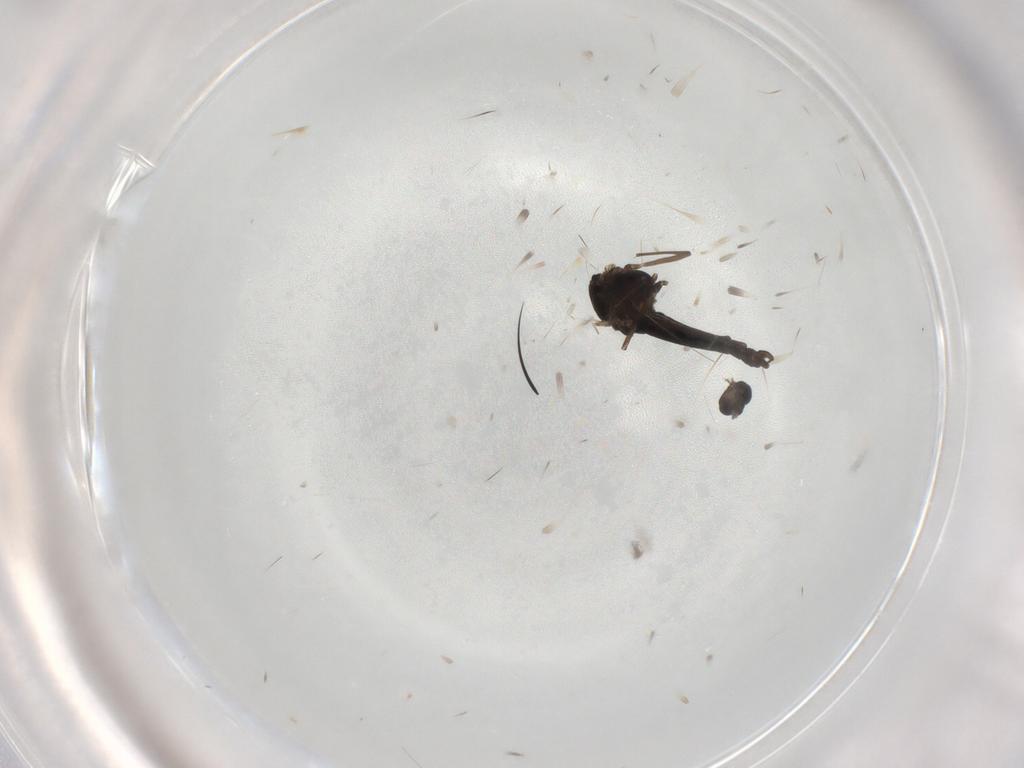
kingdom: Animalia
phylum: Arthropoda
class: Insecta
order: Diptera
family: Chironomidae
